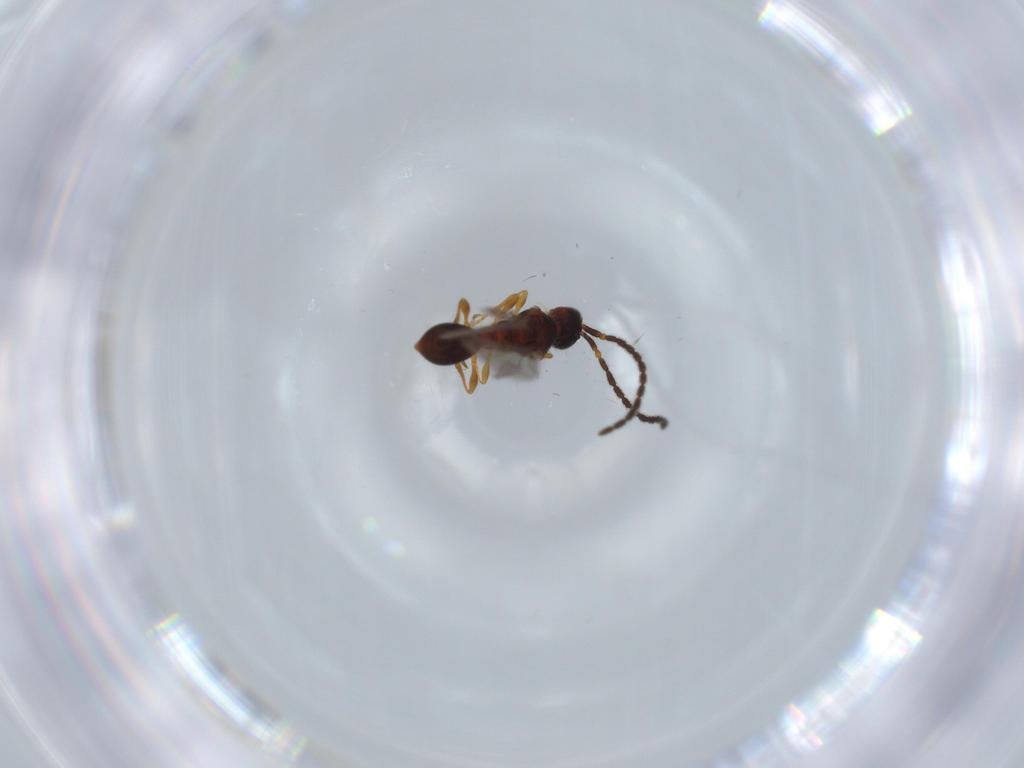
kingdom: Animalia
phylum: Arthropoda
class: Insecta
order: Hymenoptera
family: Diapriidae
